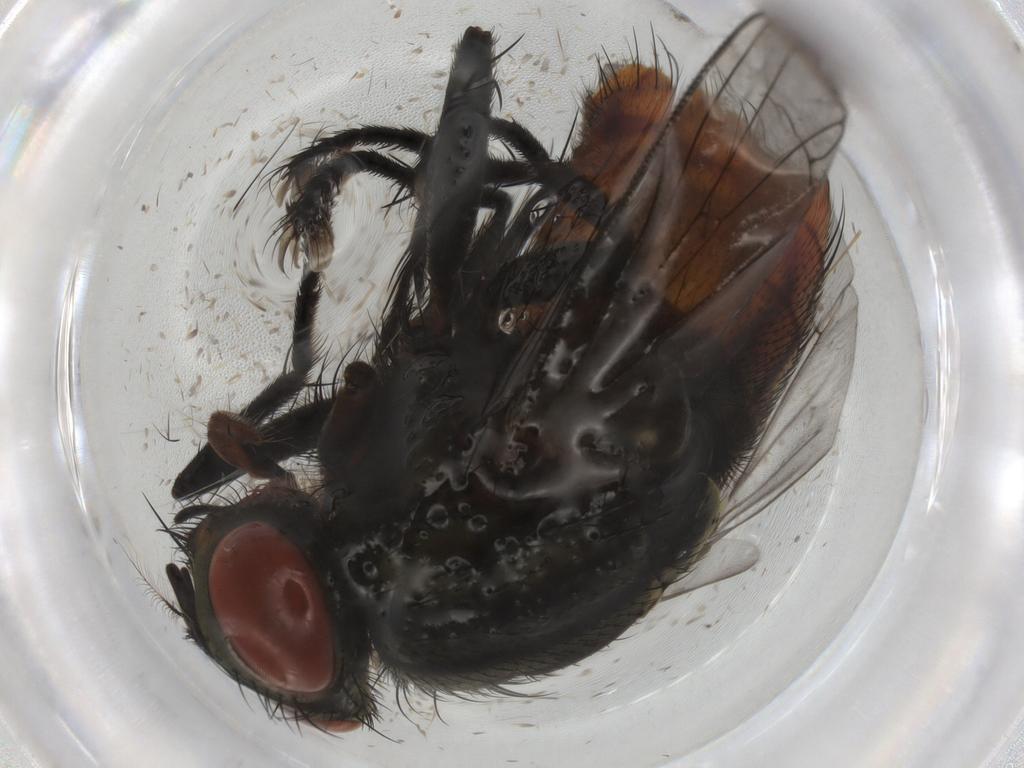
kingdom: Animalia
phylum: Arthropoda
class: Insecta
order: Diptera
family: Sarcophagidae
